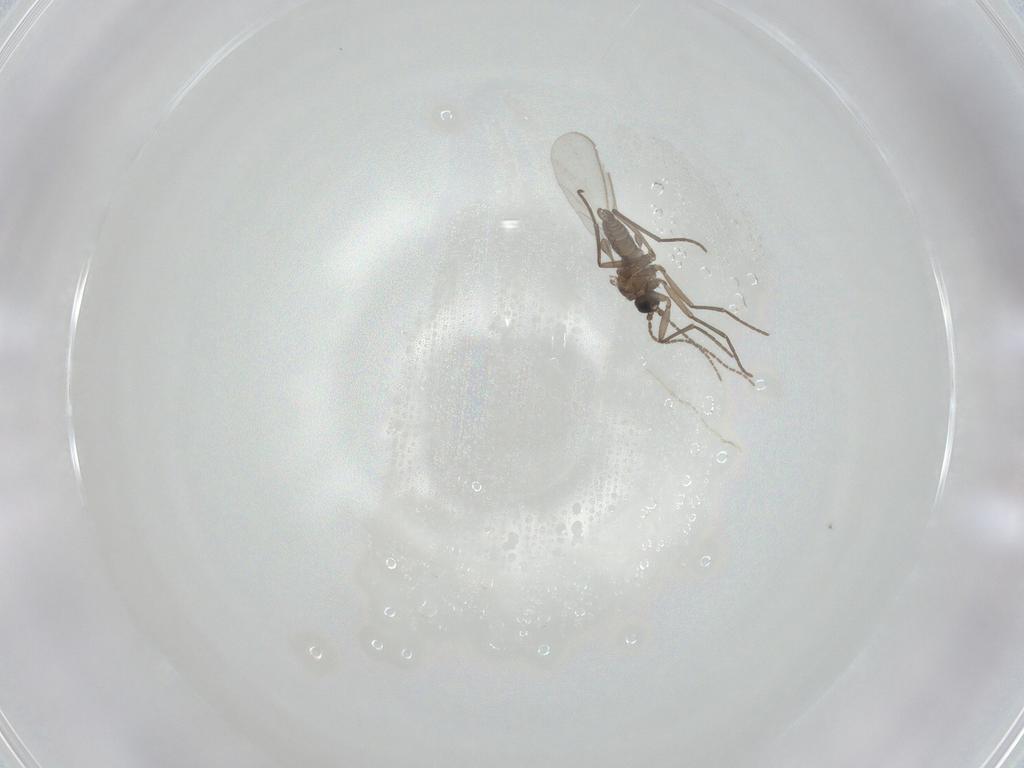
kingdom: Animalia
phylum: Arthropoda
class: Insecta
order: Diptera
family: Sciaridae
